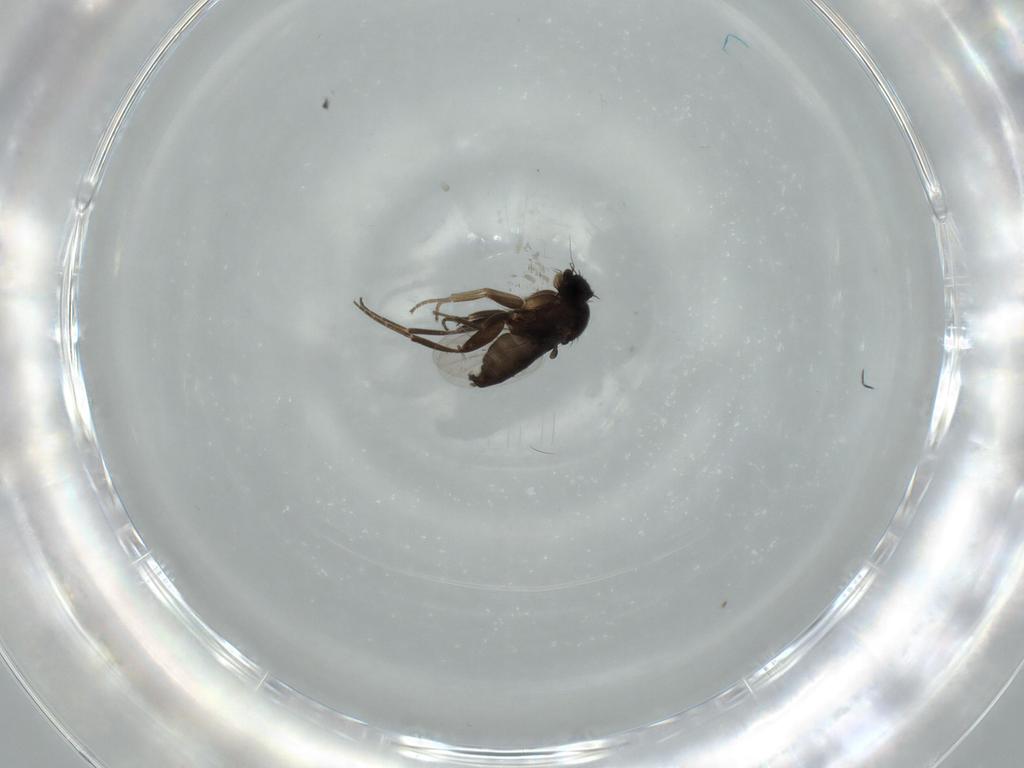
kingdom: Animalia
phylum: Arthropoda
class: Insecta
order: Diptera
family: Phoridae
